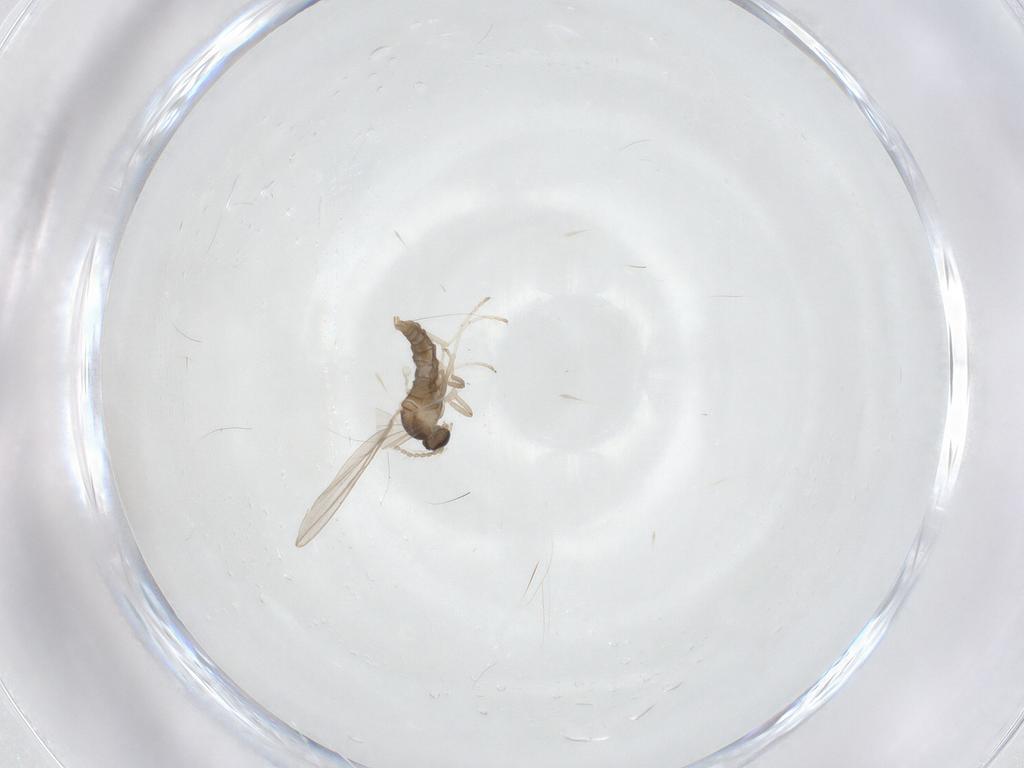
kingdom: Animalia
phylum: Arthropoda
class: Insecta
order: Diptera
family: Cecidomyiidae
